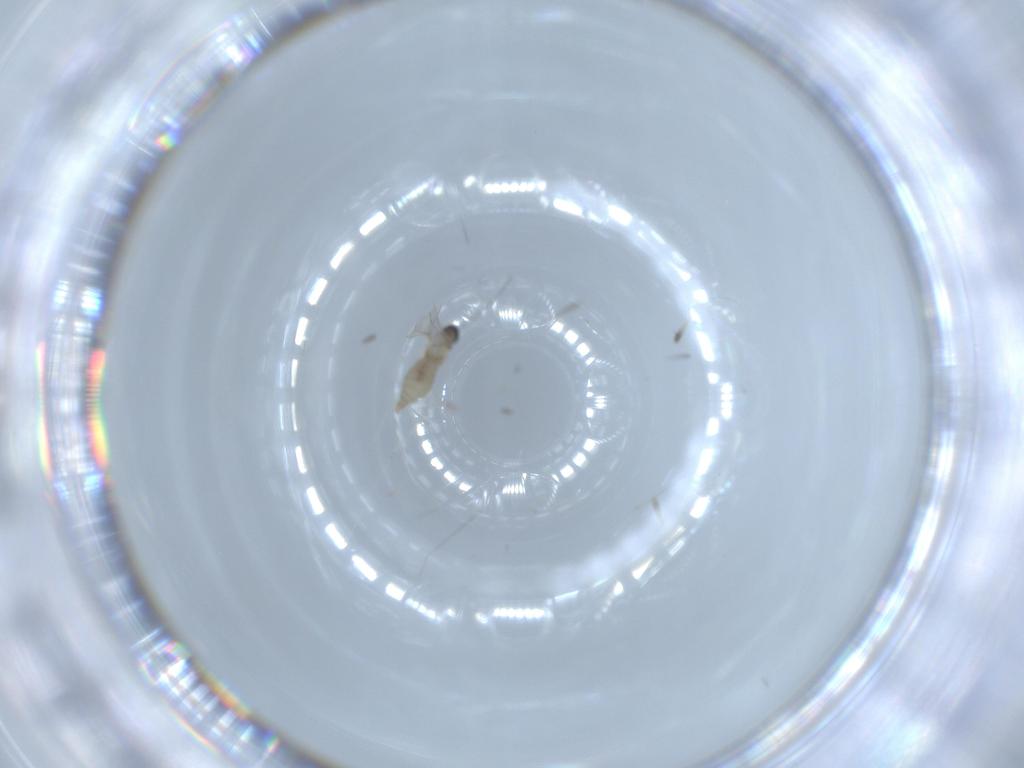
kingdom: Animalia
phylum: Arthropoda
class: Insecta
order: Diptera
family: Cecidomyiidae
